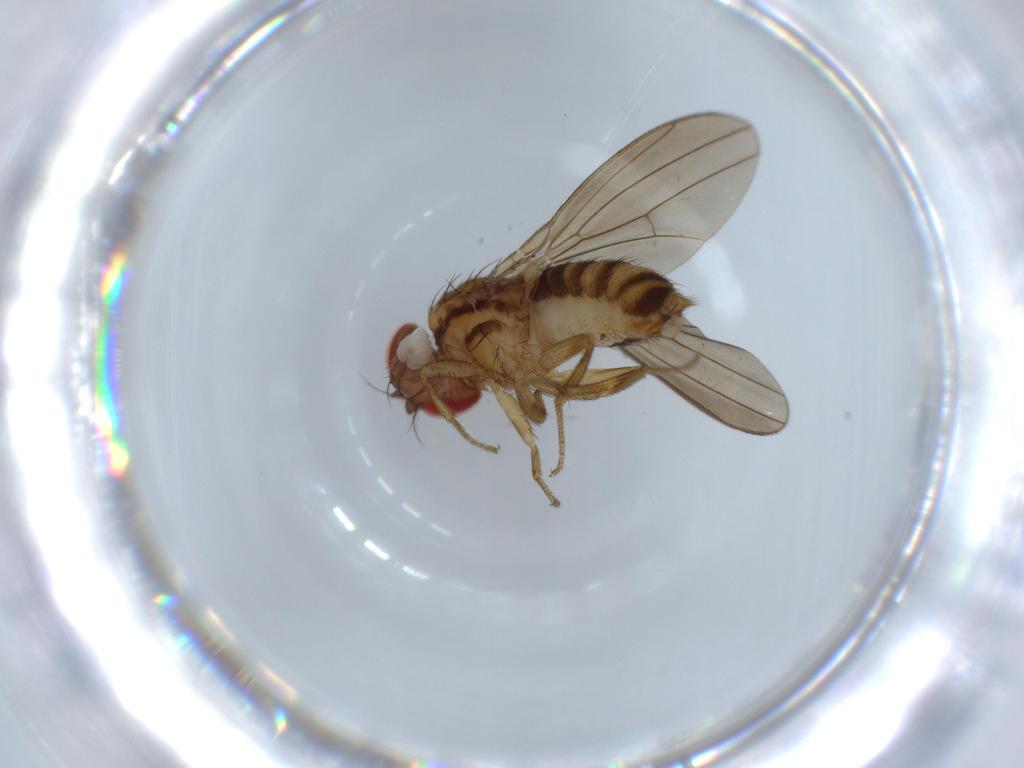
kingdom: Animalia
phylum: Arthropoda
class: Insecta
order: Diptera
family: Drosophilidae
